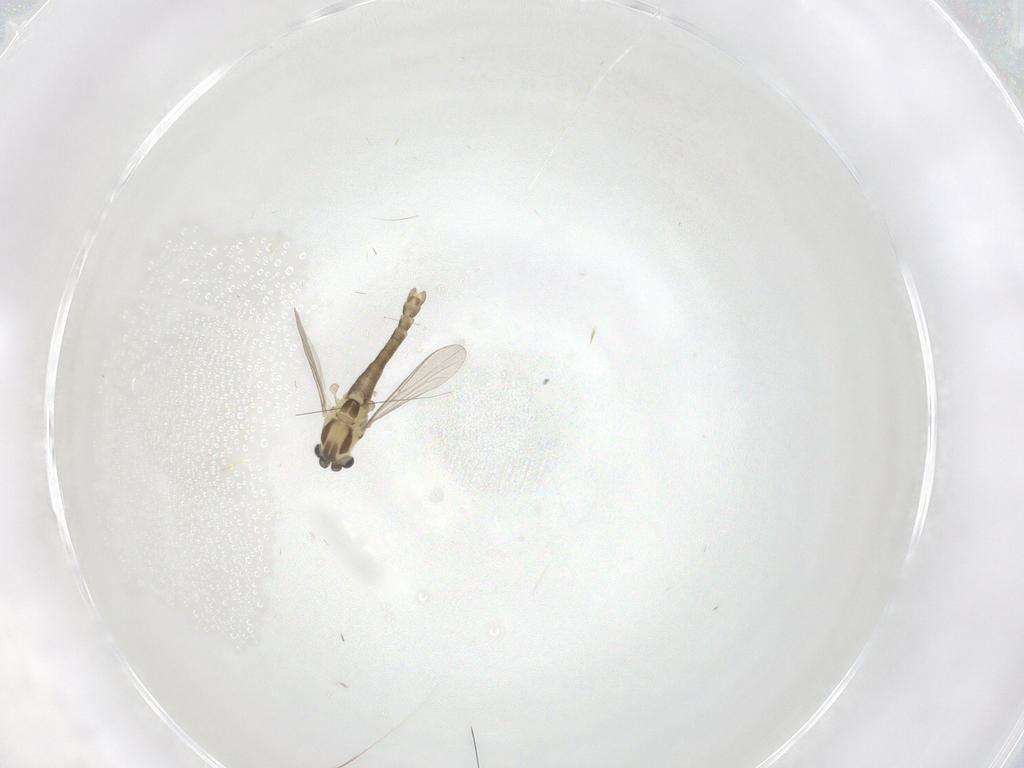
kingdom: Animalia
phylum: Arthropoda
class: Insecta
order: Diptera
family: Chironomidae
